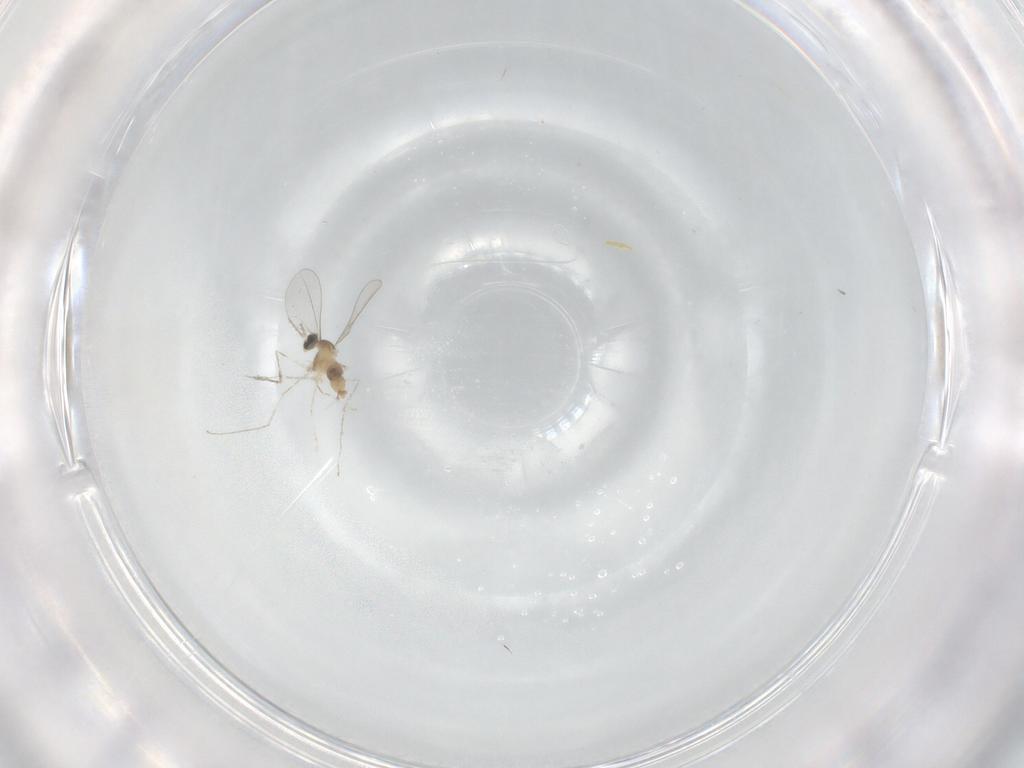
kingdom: Animalia
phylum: Arthropoda
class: Insecta
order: Diptera
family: Cecidomyiidae
